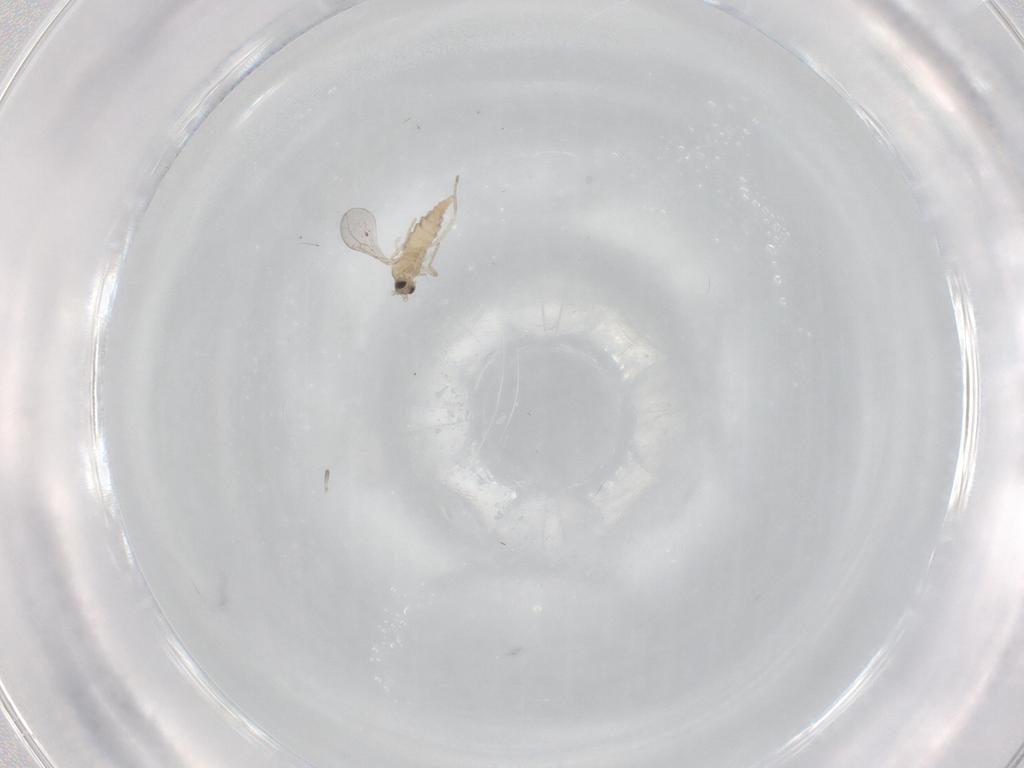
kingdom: Animalia
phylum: Arthropoda
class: Insecta
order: Diptera
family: Cecidomyiidae
